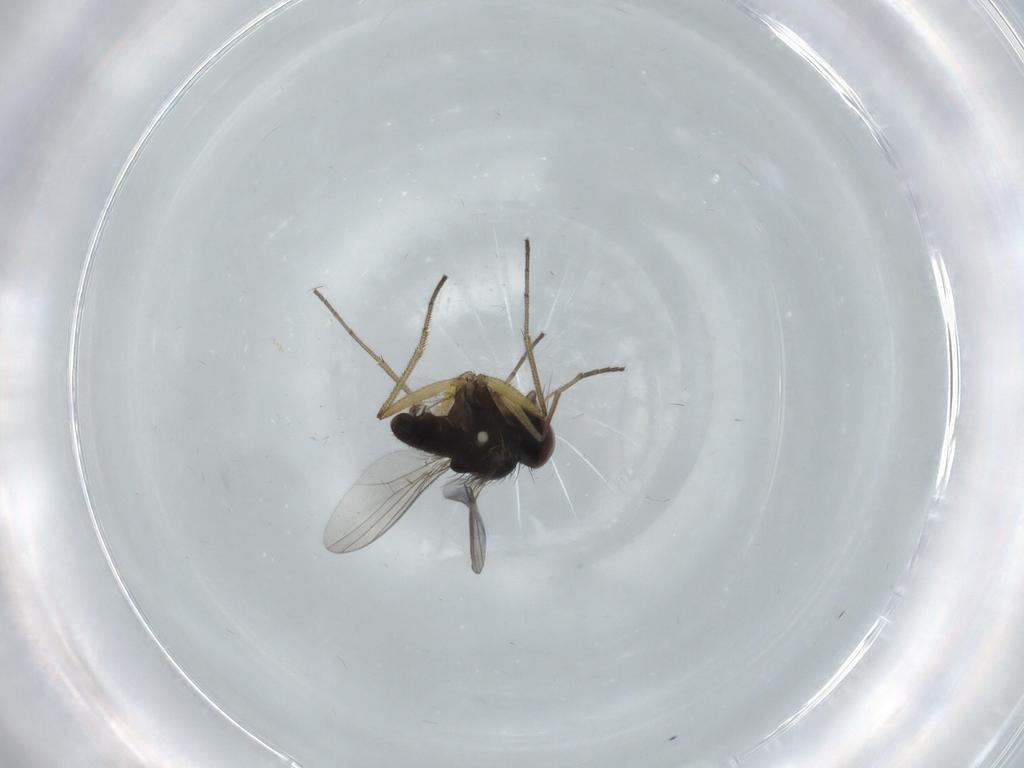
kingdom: Animalia
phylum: Arthropoda
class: Insecta
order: Diptera
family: Dolichopodidae
